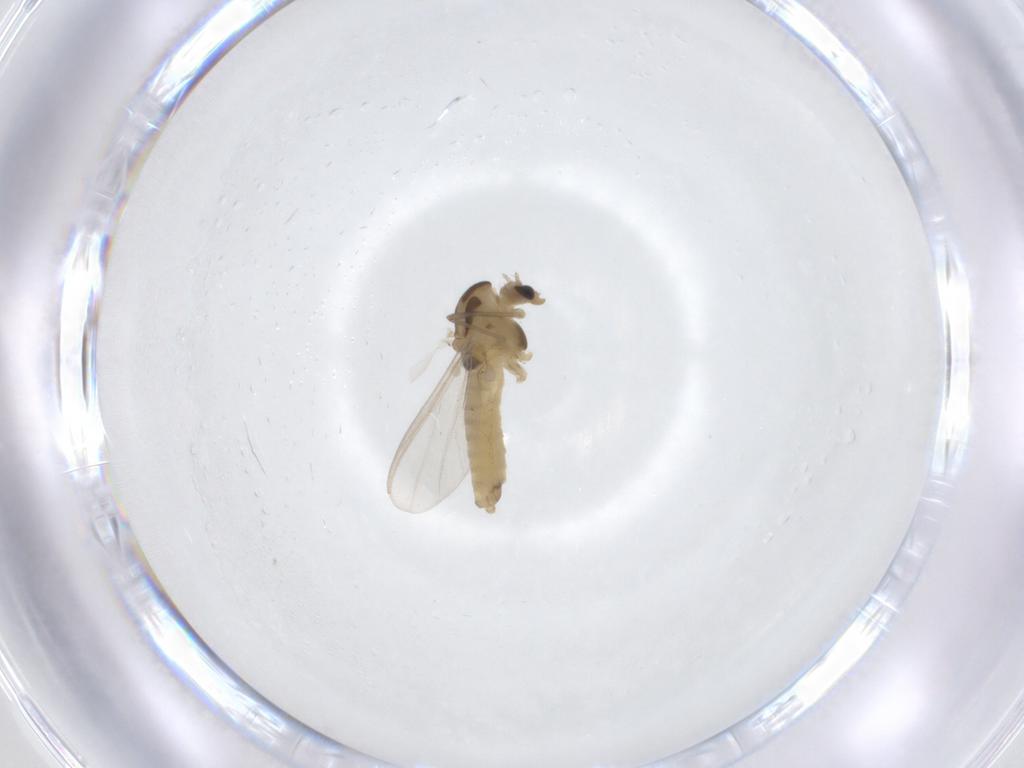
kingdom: Animalia
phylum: Arthropoda
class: Insecta
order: Diptera
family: Chironomidae
